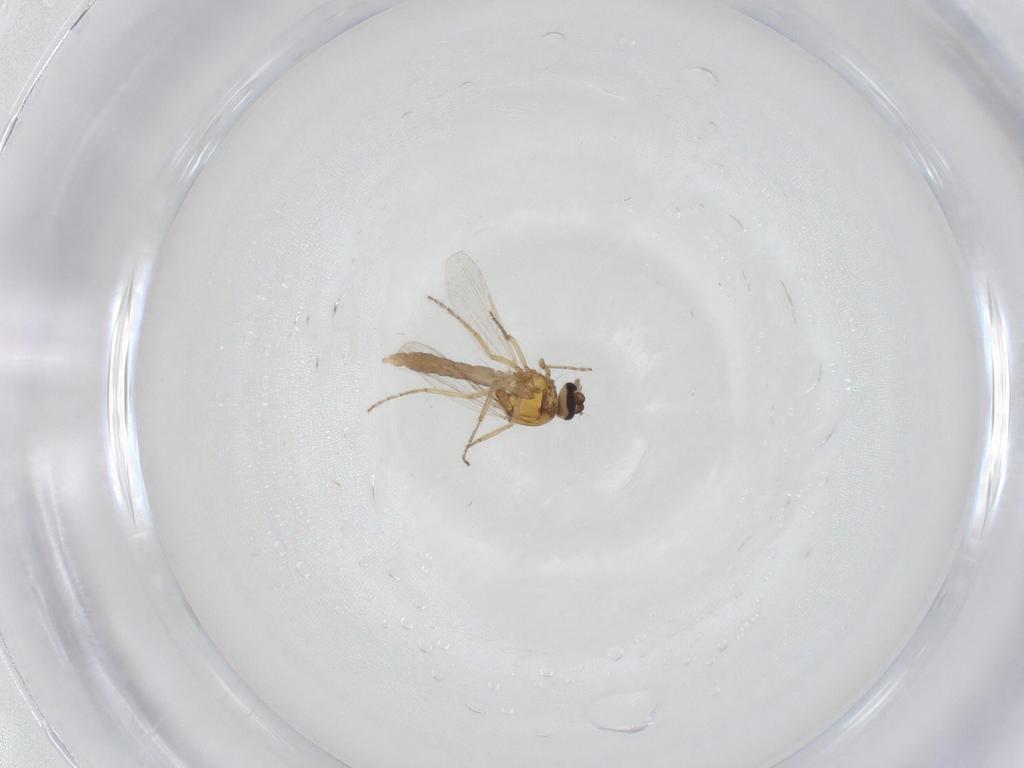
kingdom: Animalia
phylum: Arthropoda
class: Insecta
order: Diptera
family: Ceratopogonidae
